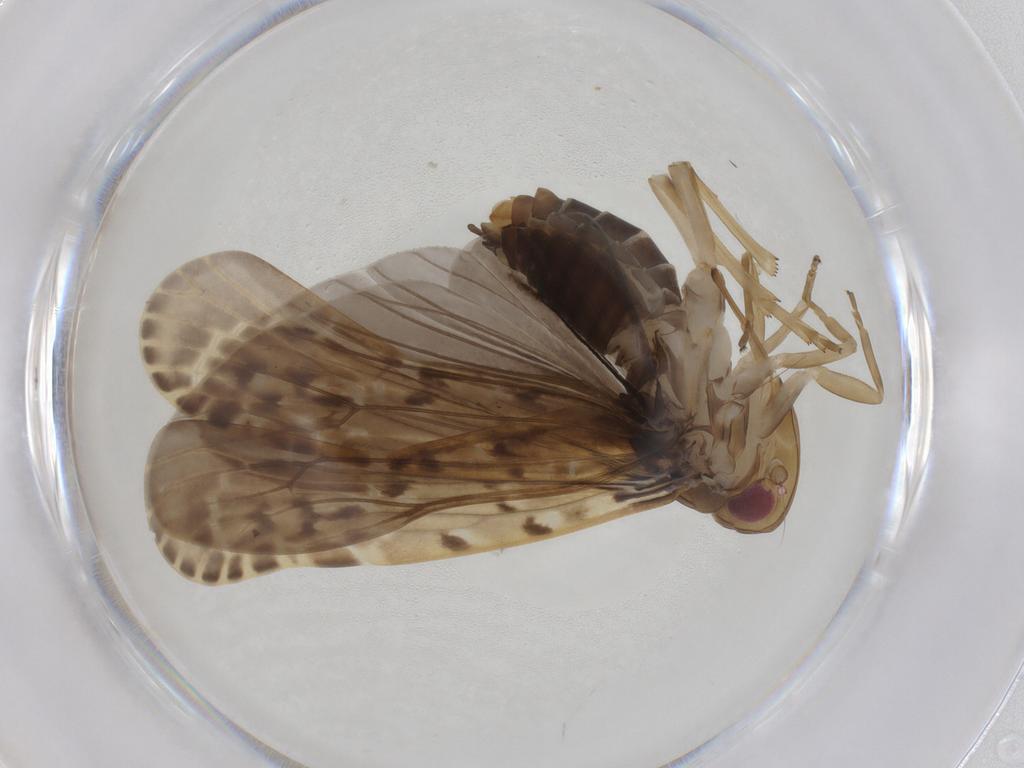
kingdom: Animalia
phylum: Arthropoda
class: Insecta
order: Hemiptera
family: Achilidae
